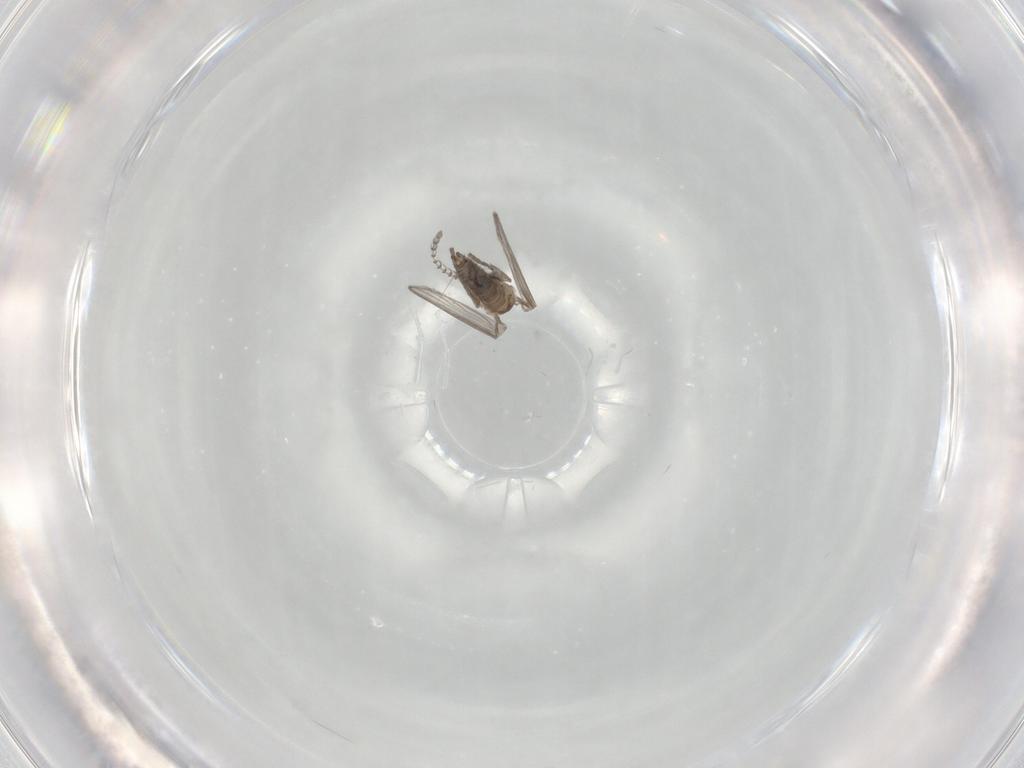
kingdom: Animalia
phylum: Arthropoda
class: Insecta
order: Diptera
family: Psychodidae
